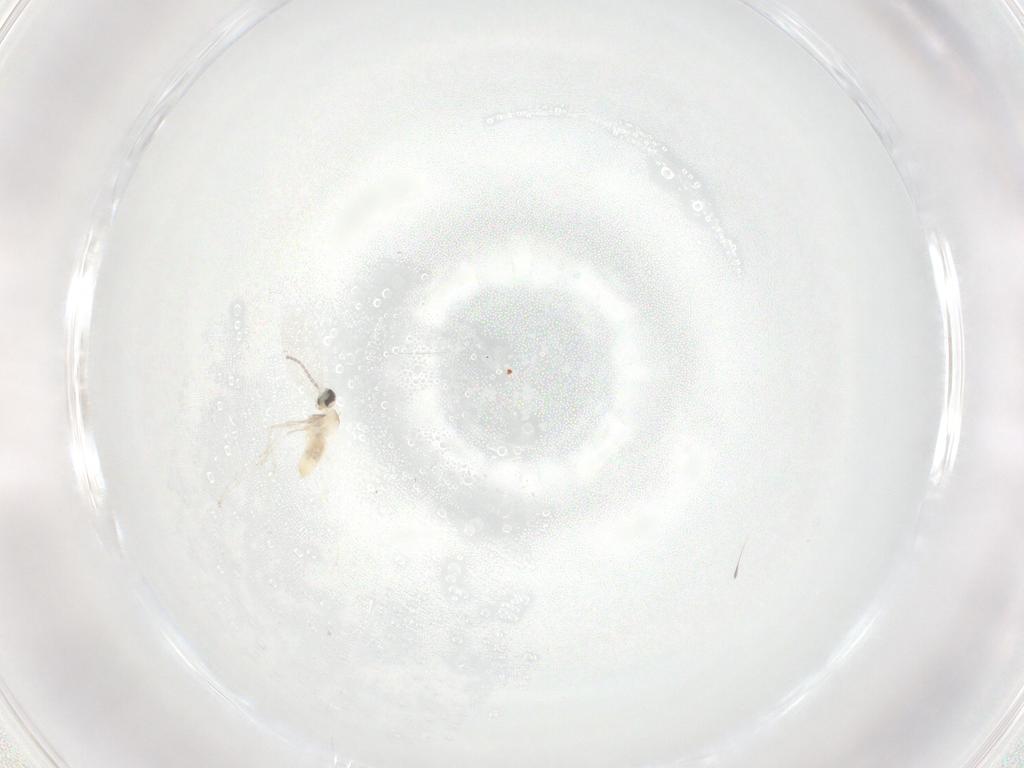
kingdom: Animalia
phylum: Arthropoda
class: Insecta
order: Diptera
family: Cecidomyiidae
